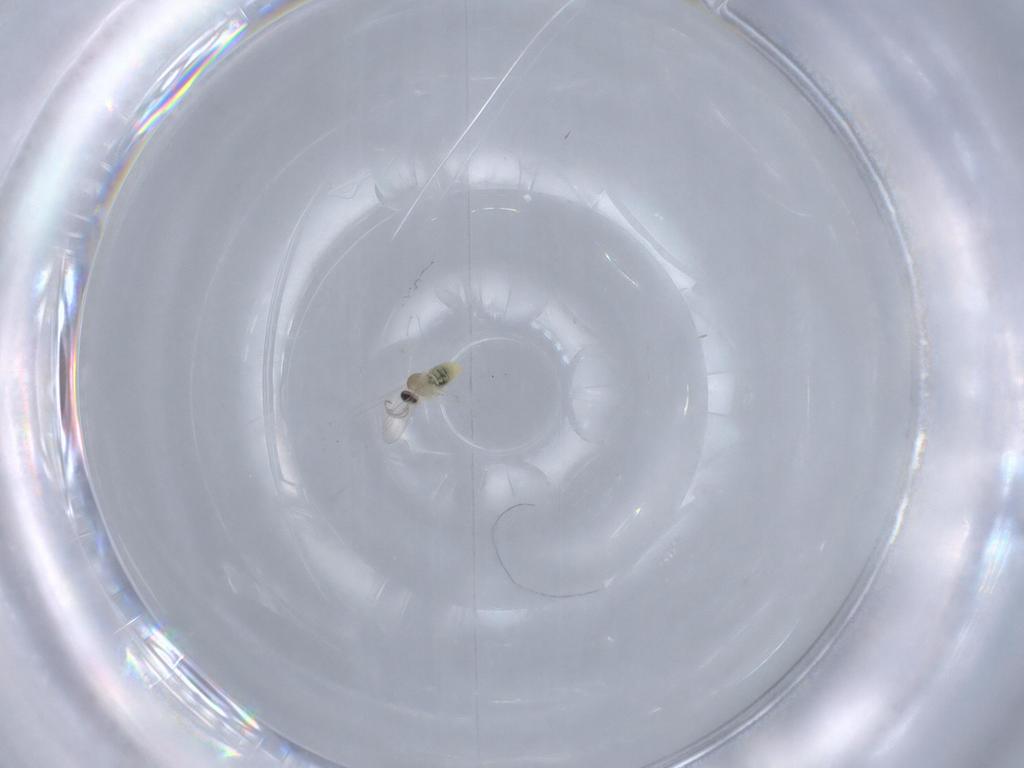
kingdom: Animalia
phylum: Arthropoda
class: Insecta
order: Diptera
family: Cecidomyiidae
